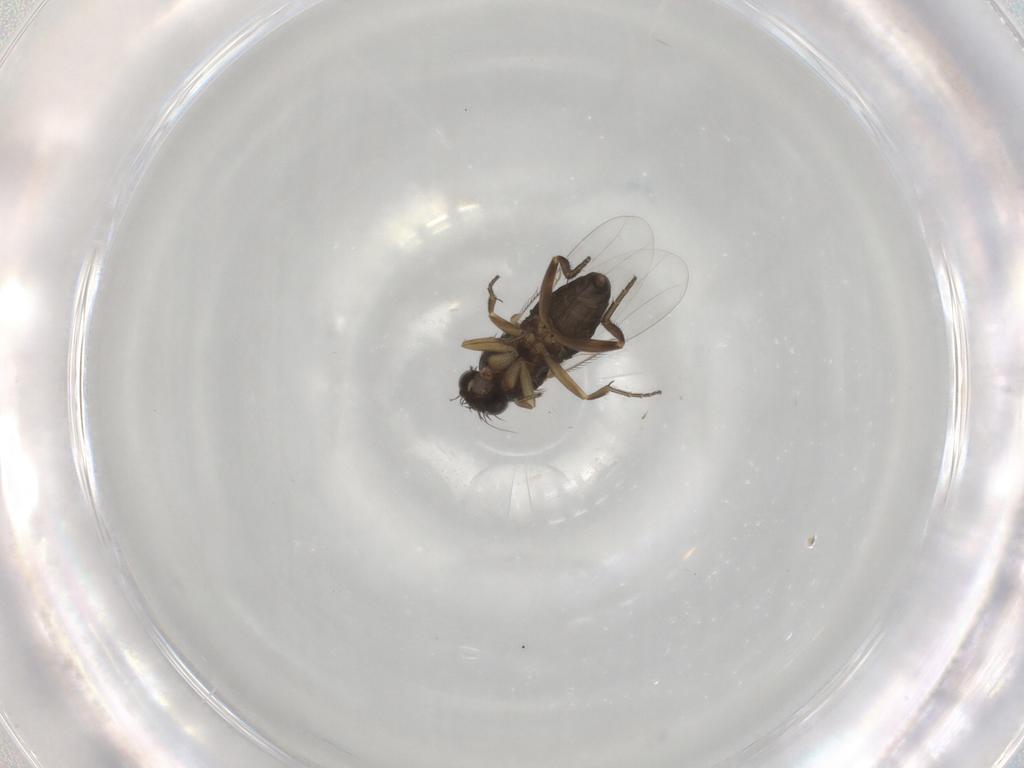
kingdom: Animalia
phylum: Arthropoda
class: Insecta
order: Diptera
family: Phoridae
